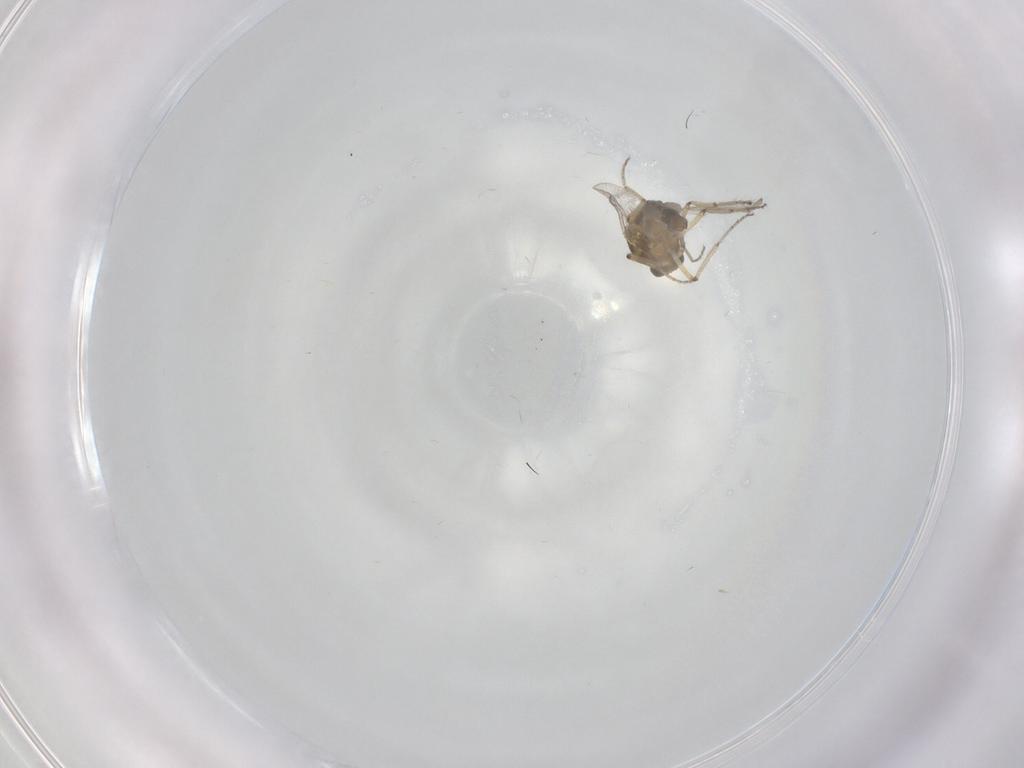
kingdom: Animalia
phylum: Arthropoda
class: Insecta
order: Diptera
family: Ceratopogonidae
